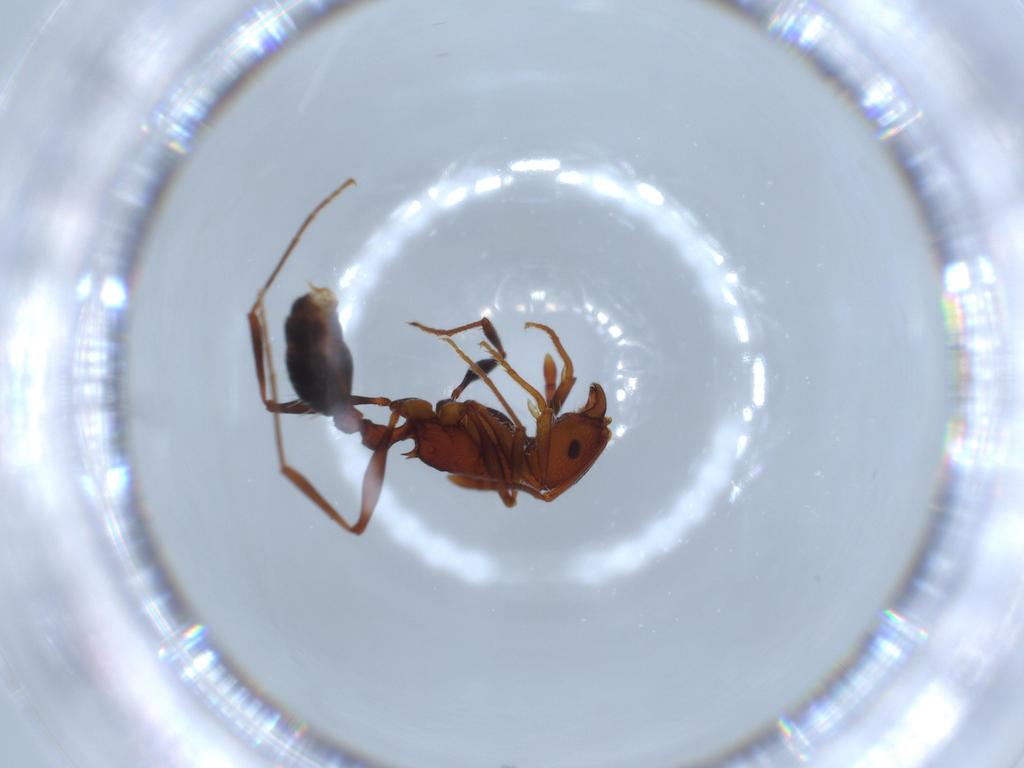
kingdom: Animalia
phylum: Arthropoda
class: Insecta
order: Hymenoptera
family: Formicidae
